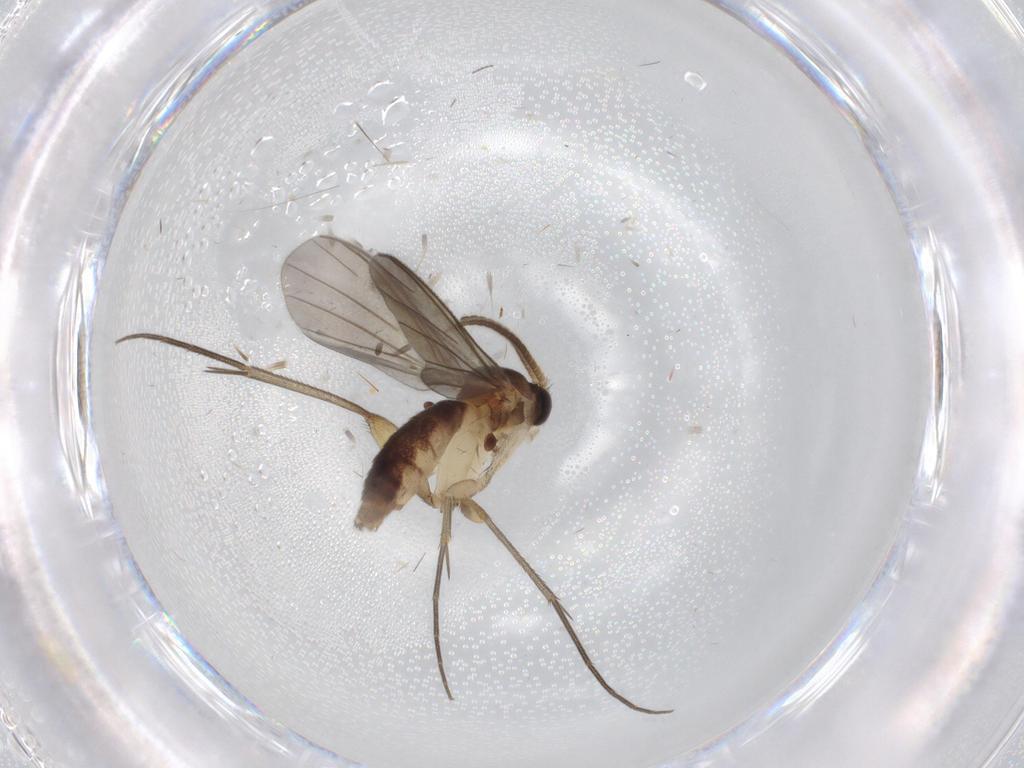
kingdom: Animalia
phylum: Arthropoda
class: Insecta
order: Diptera
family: Mycetophilidae
